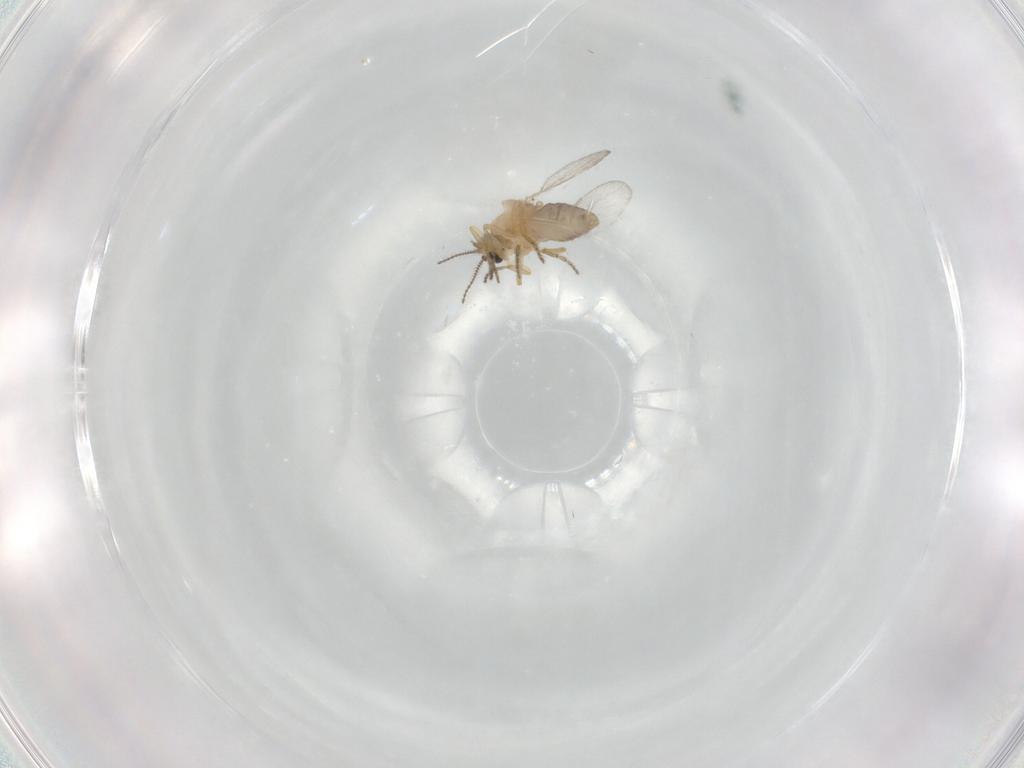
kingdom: Animalia
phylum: Arthropoda
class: Insecta
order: Diptera
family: Ceratopogonidae
